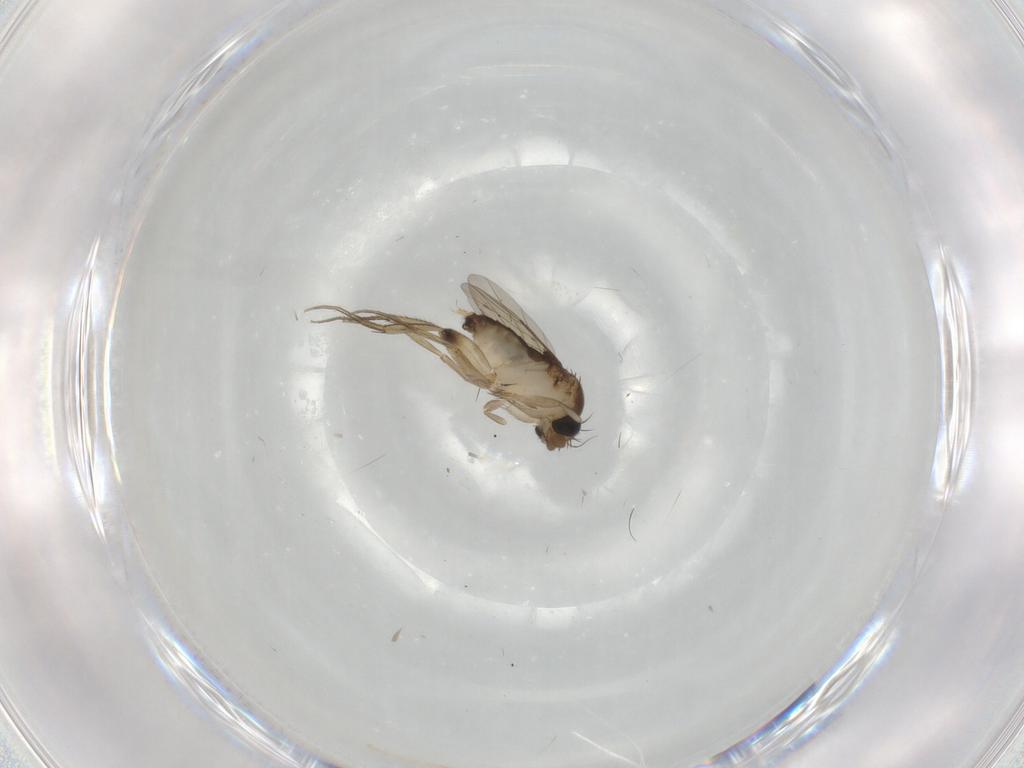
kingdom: Animalia
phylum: Arthropoda
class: Insecta
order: Diptera
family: Phoridae
